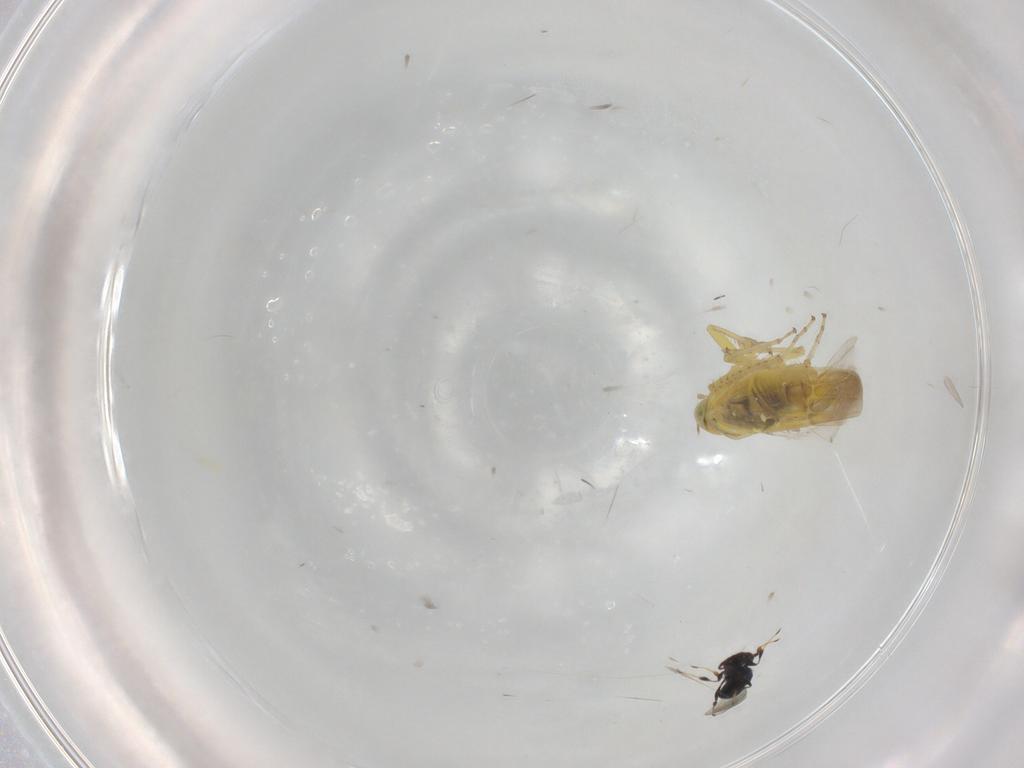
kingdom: Animalia
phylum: Arthropoda
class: Insecta
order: Hemiptera
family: Cicadellidae
